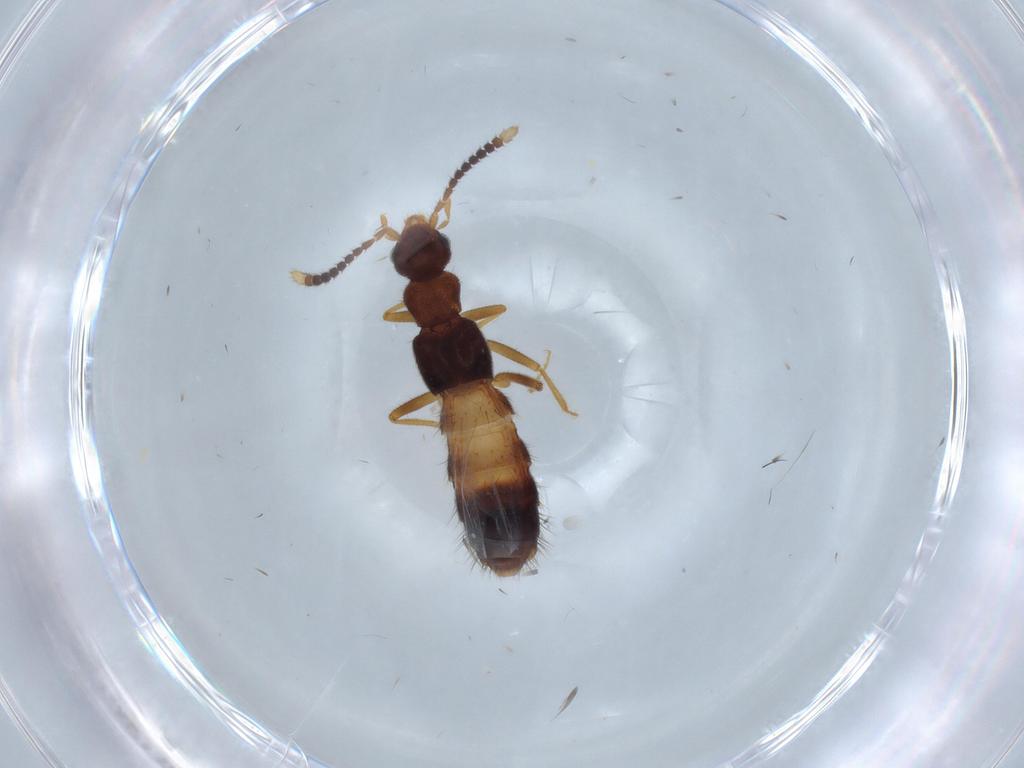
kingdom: Animalia
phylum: Arthropoda
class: Insecta
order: Coleoptera
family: Staphylinidae
